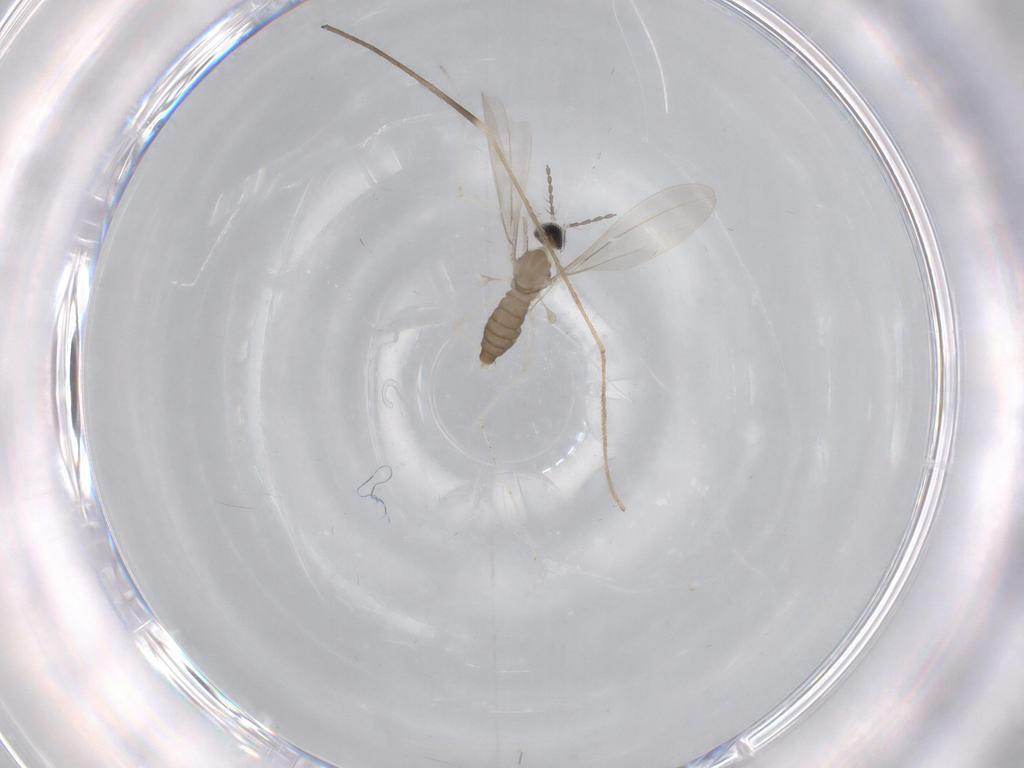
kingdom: Animalia
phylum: Arthropoda
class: Insecta
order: Diptera
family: Cecidomyiidae
